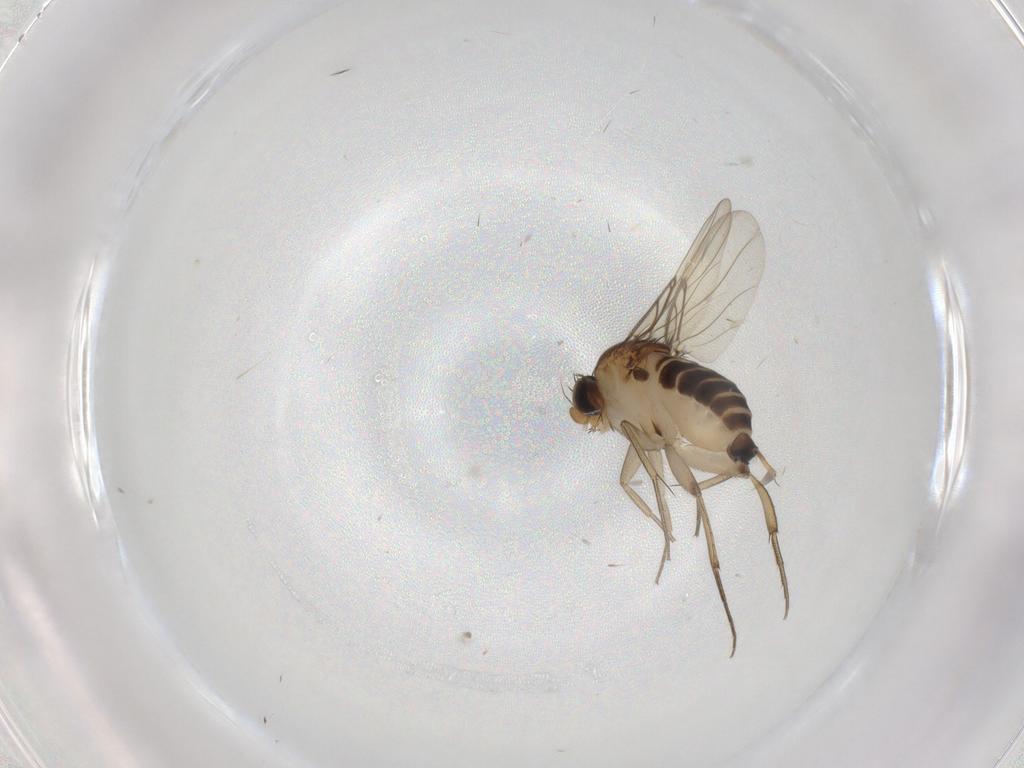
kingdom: Animalia
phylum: Arthropoda
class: Insecta
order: Diptera
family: Phoridae
